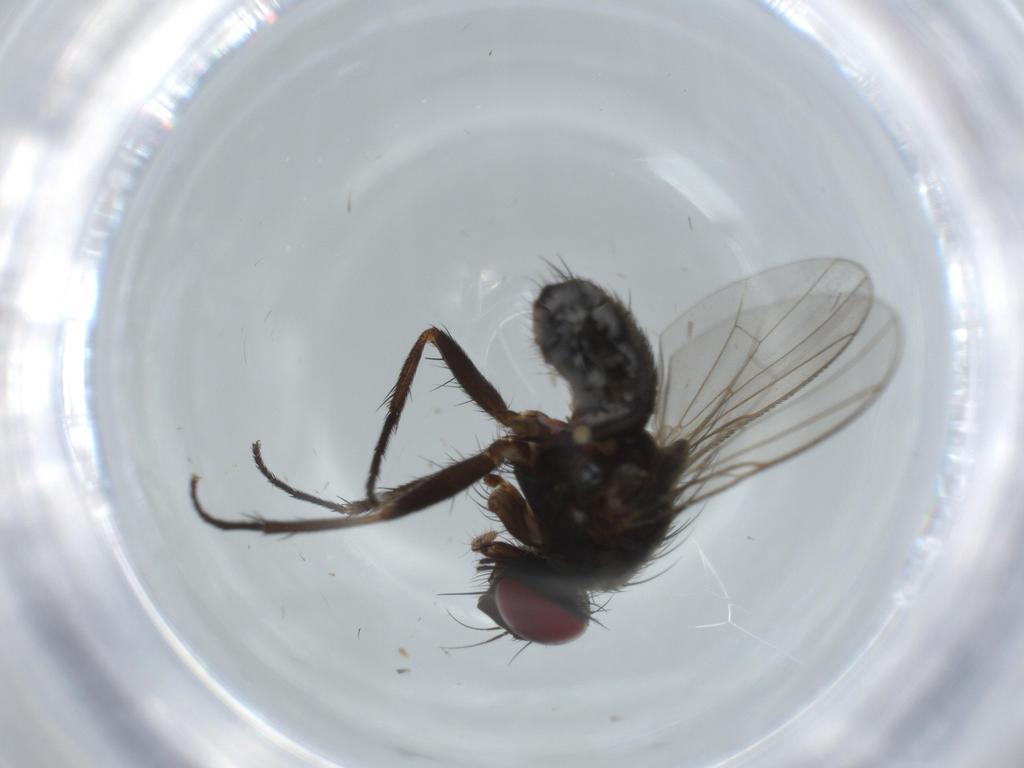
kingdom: Animalia
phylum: Arthropoda
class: Insecta
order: Diptera
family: Muscidae
